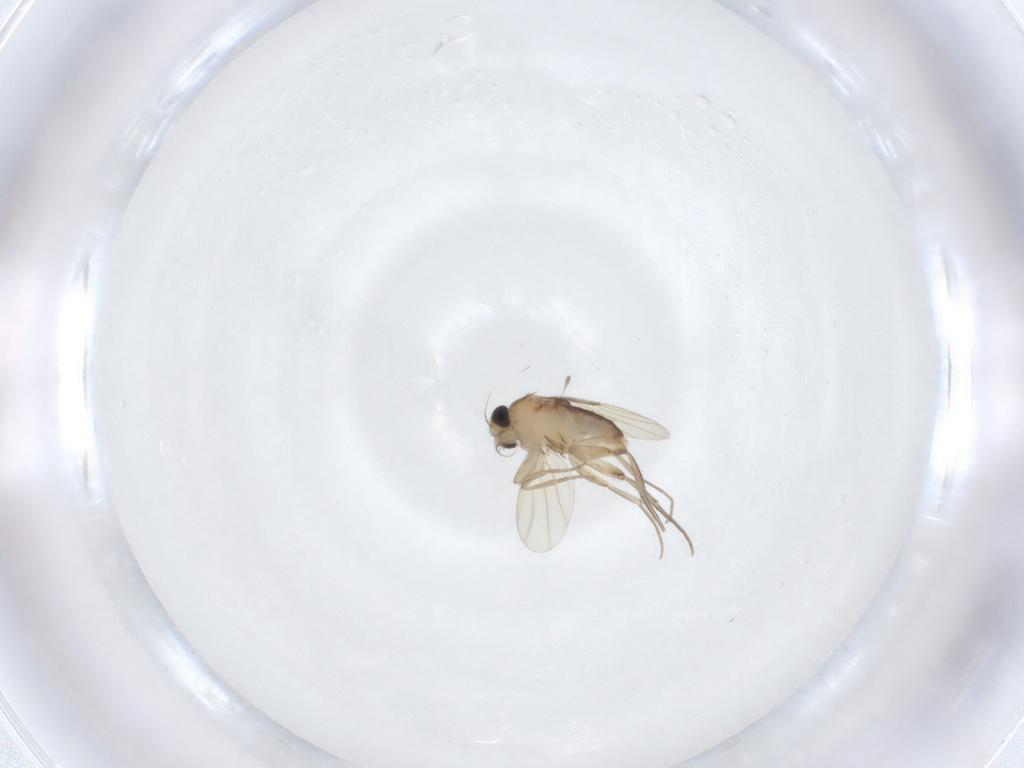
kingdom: Animalia
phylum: Arthropoda
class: Insecta
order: Diptera
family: Phoridae
